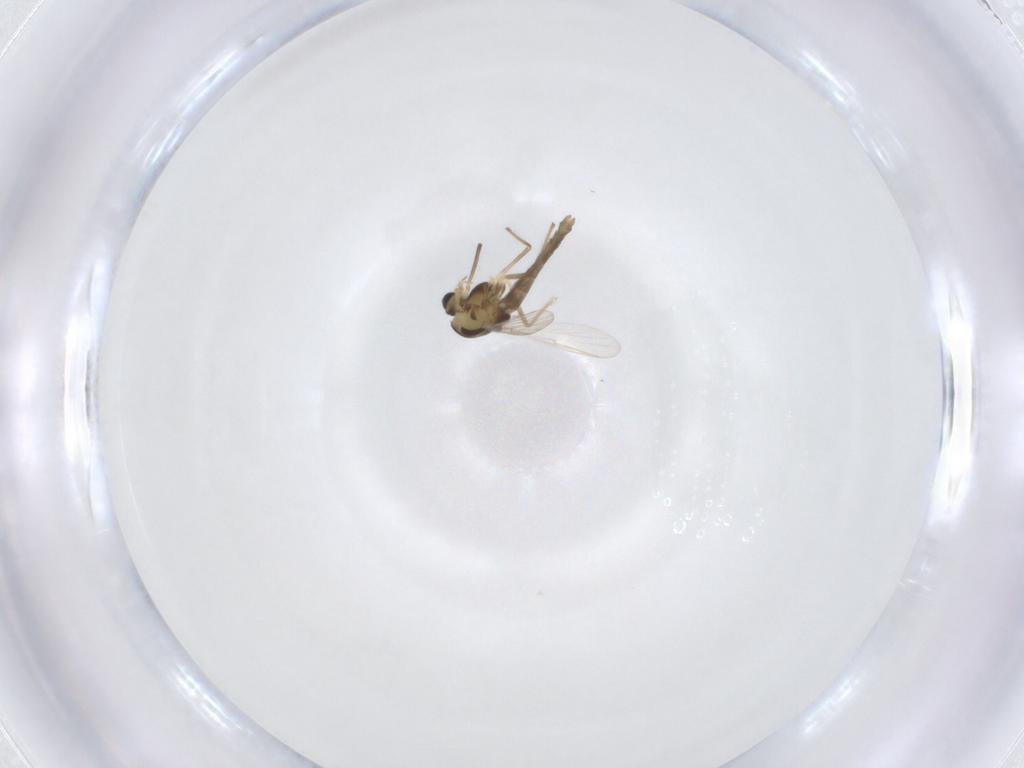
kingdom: Animalia
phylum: Arthropoda
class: Insecta
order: Diptera
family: Chironomidae
